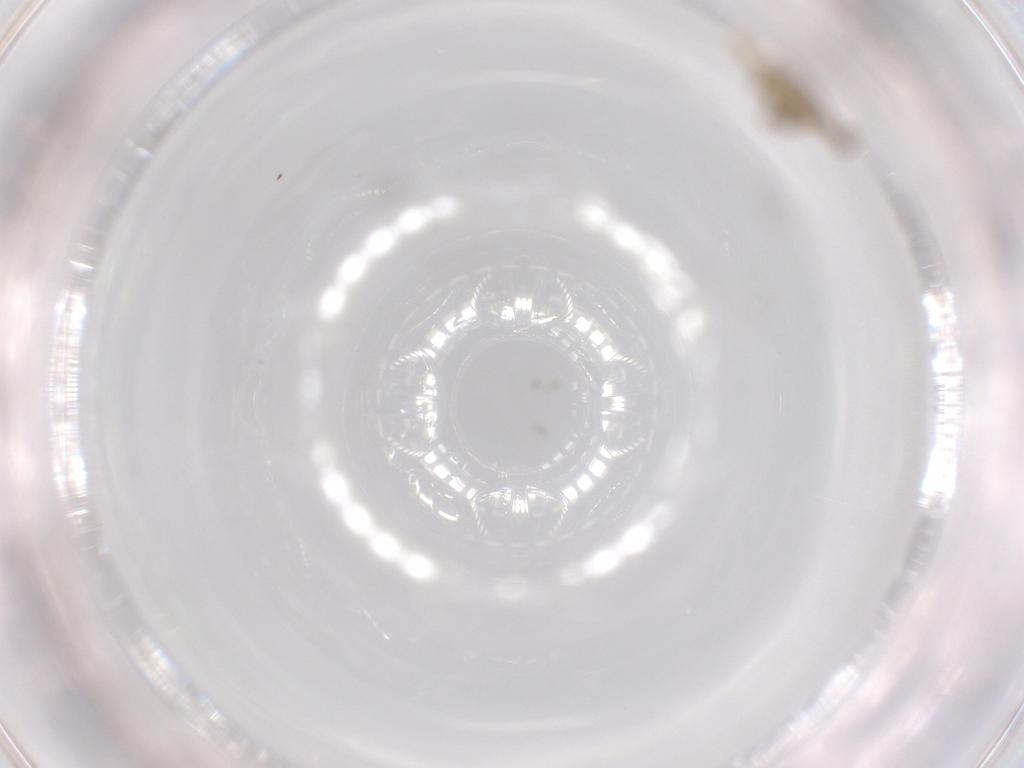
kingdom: Animalia
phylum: Arthropoda
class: Insecta
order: Diptera
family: Chironomidae
